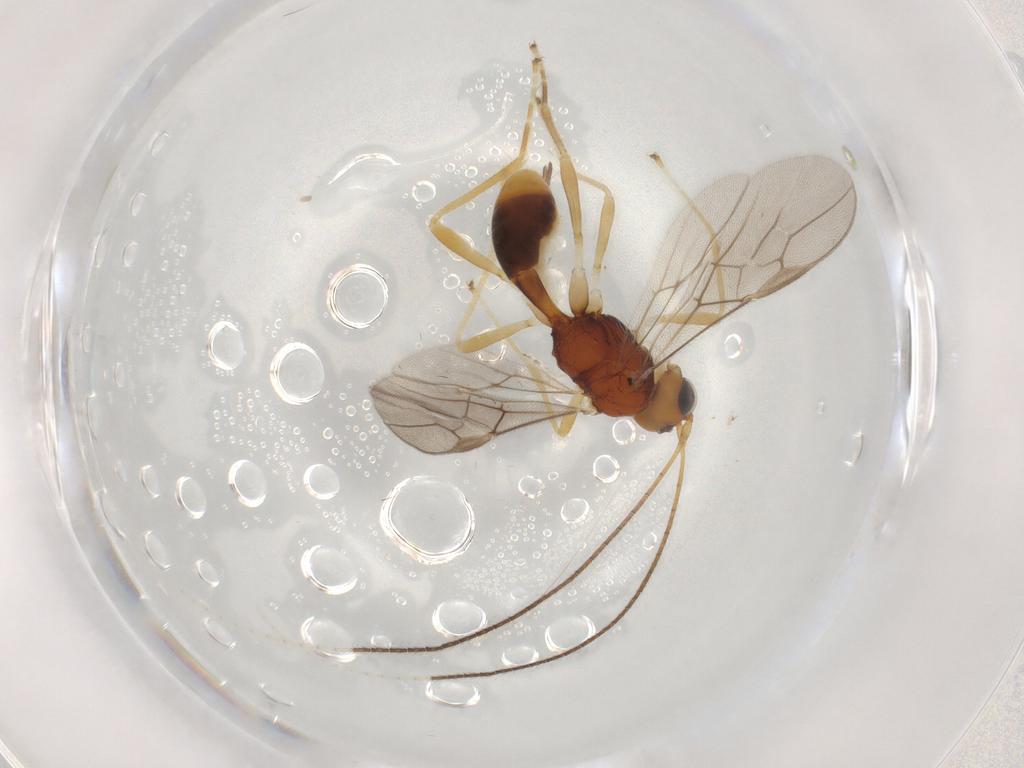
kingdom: Animalia
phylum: Arthropoda
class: Insecta
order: Hymenoptera
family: Braconidae
